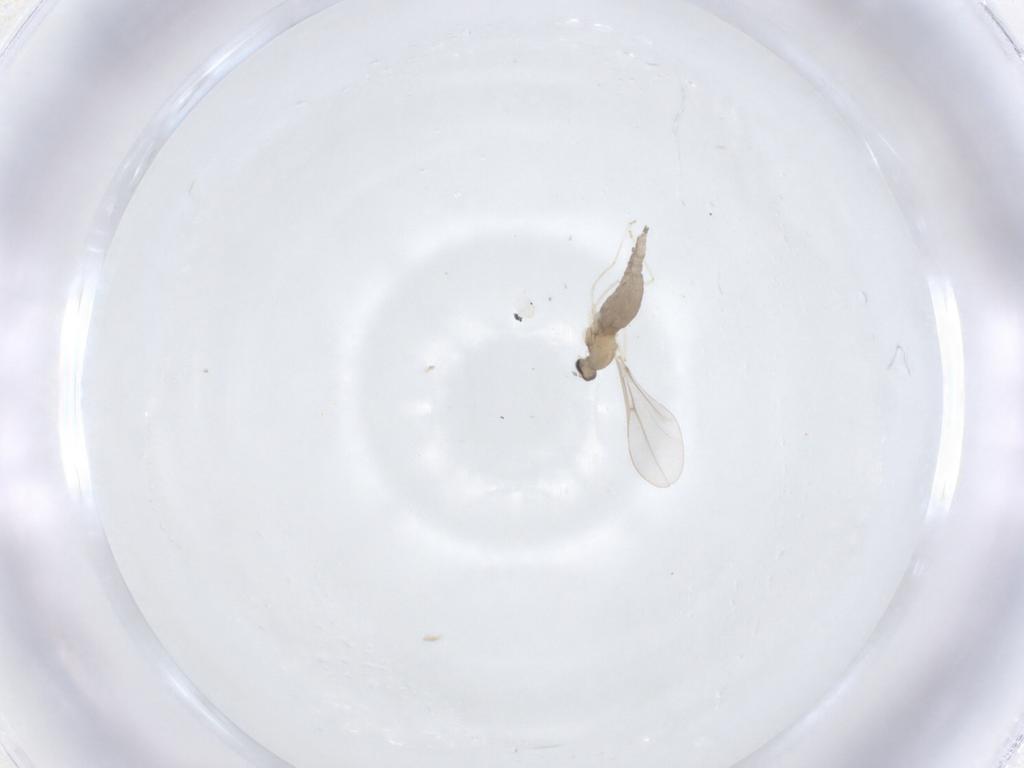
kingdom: Animalia
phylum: Arthropoda
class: Insecta
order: Diptera
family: Cecidomyiidae
